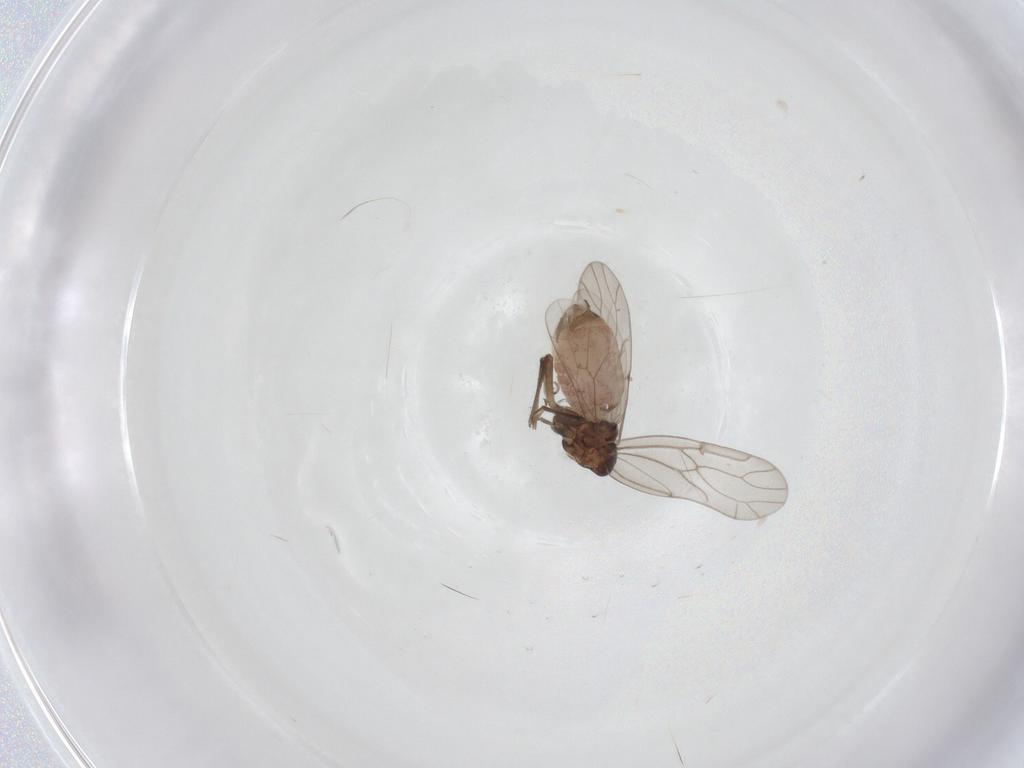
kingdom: Animalia
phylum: Arthropoda
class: Insecta
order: Psocodea
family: Ectopsocidae
